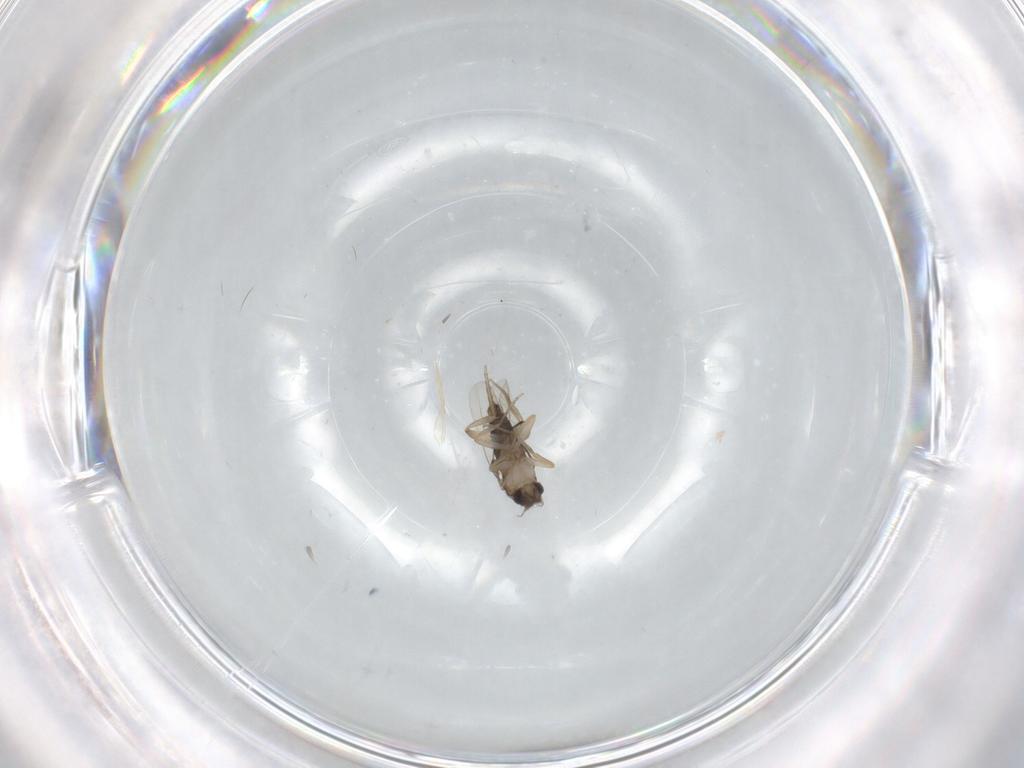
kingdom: Animalia
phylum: Arthropoda
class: Insecta
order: Diptera
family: Phoridae
